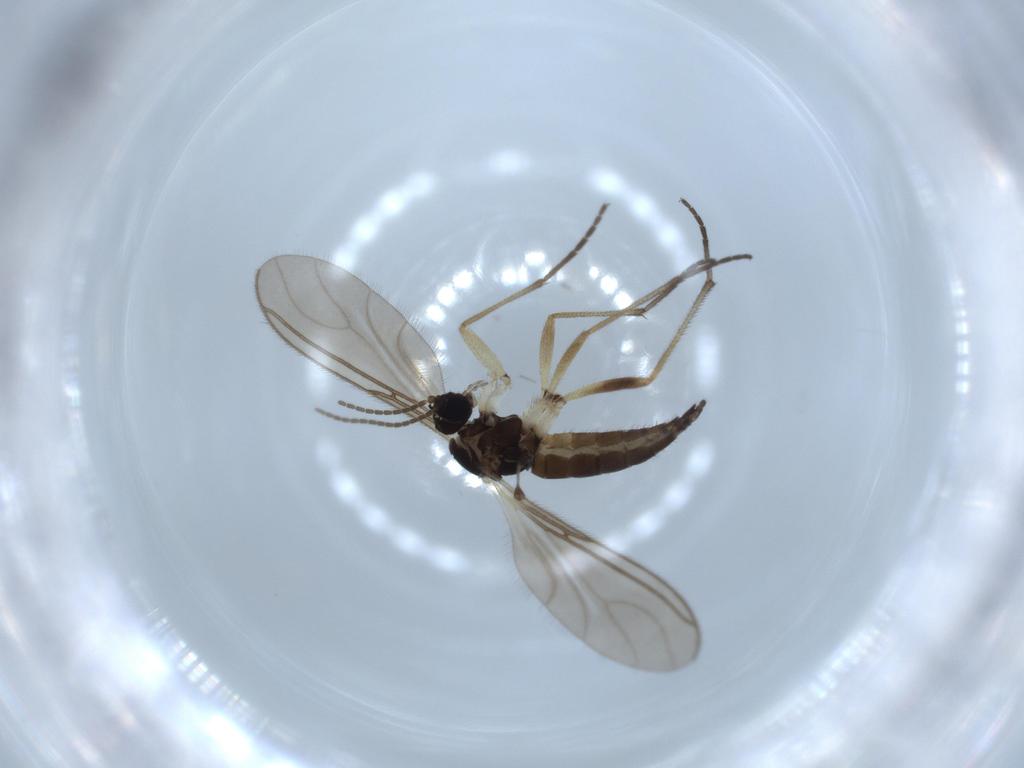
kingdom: Animalia
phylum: Arthropoda
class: Insecta
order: Diptera
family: Sciaridae
